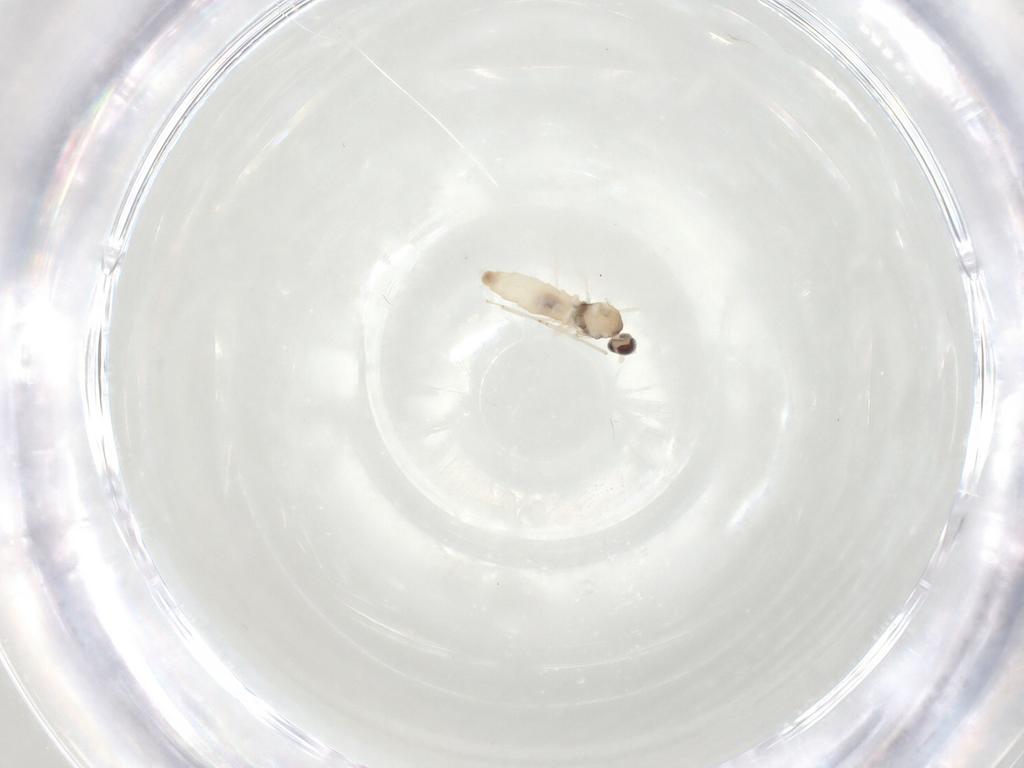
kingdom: Animalia
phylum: Arthropoda
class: Insecta
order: Diptera
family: Cecidomyiidae
